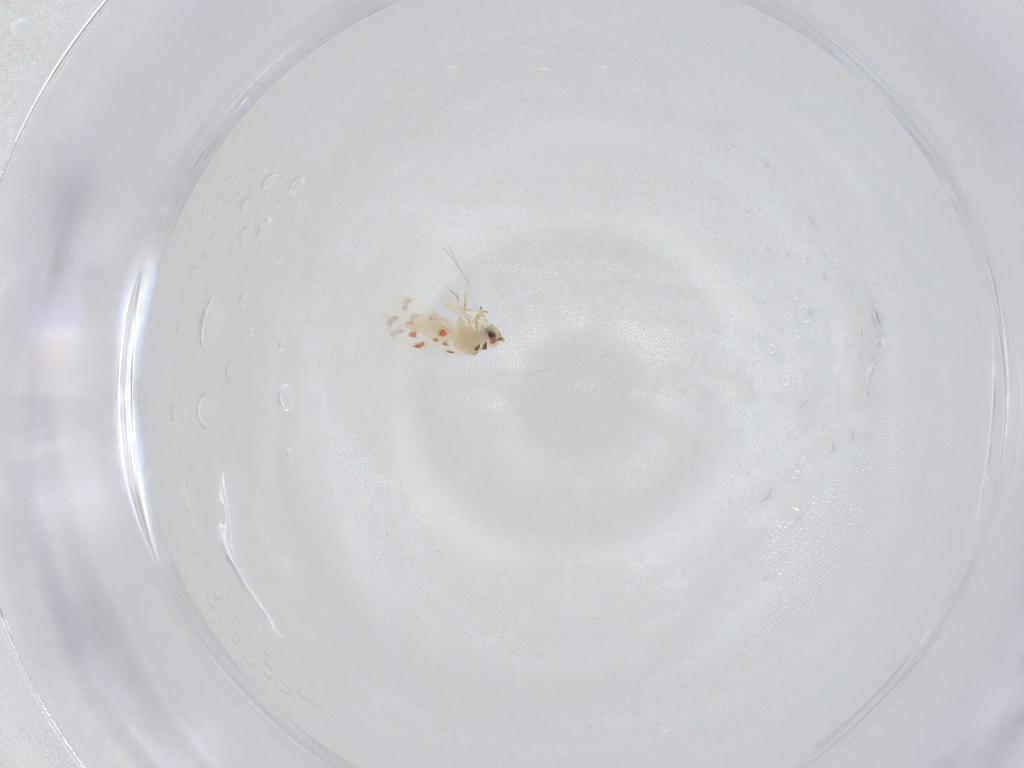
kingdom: Animalia
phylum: Arthropoda
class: Insecta
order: Hemiptera
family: Aleyrodidae
